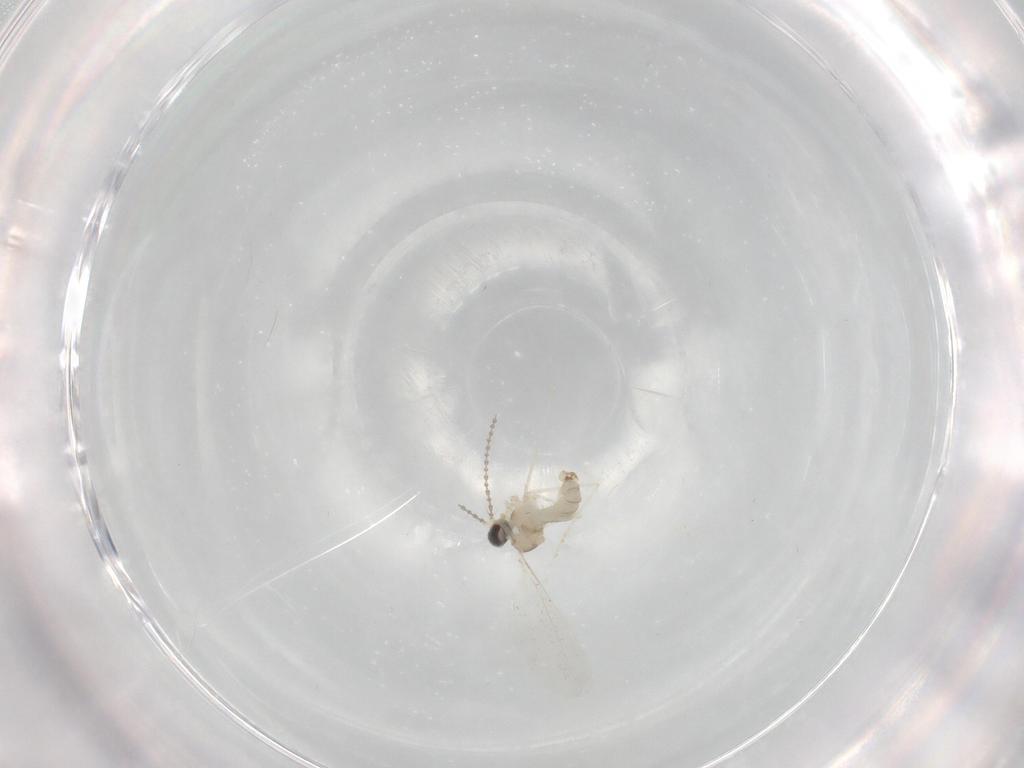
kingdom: Animalia
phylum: Arthropoda
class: Insecta
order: Diptera
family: Cecidomyiidae
